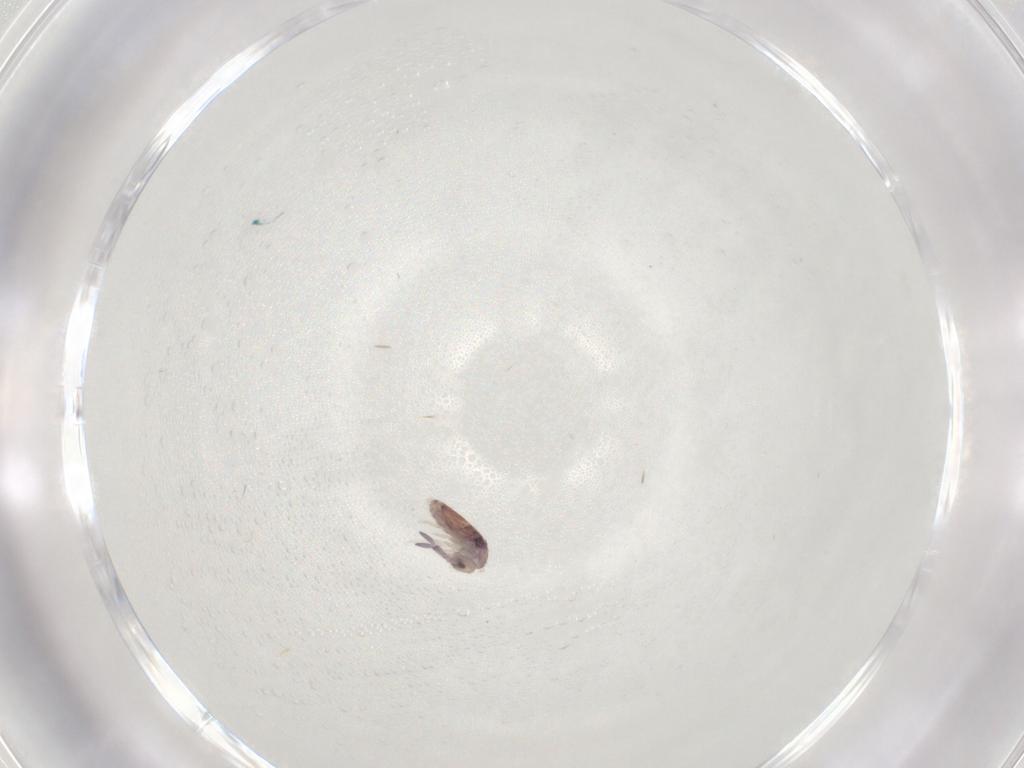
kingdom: Animalia
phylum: Arthropoda
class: Collembola
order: Entomobryomorpha
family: Entomobryidae
